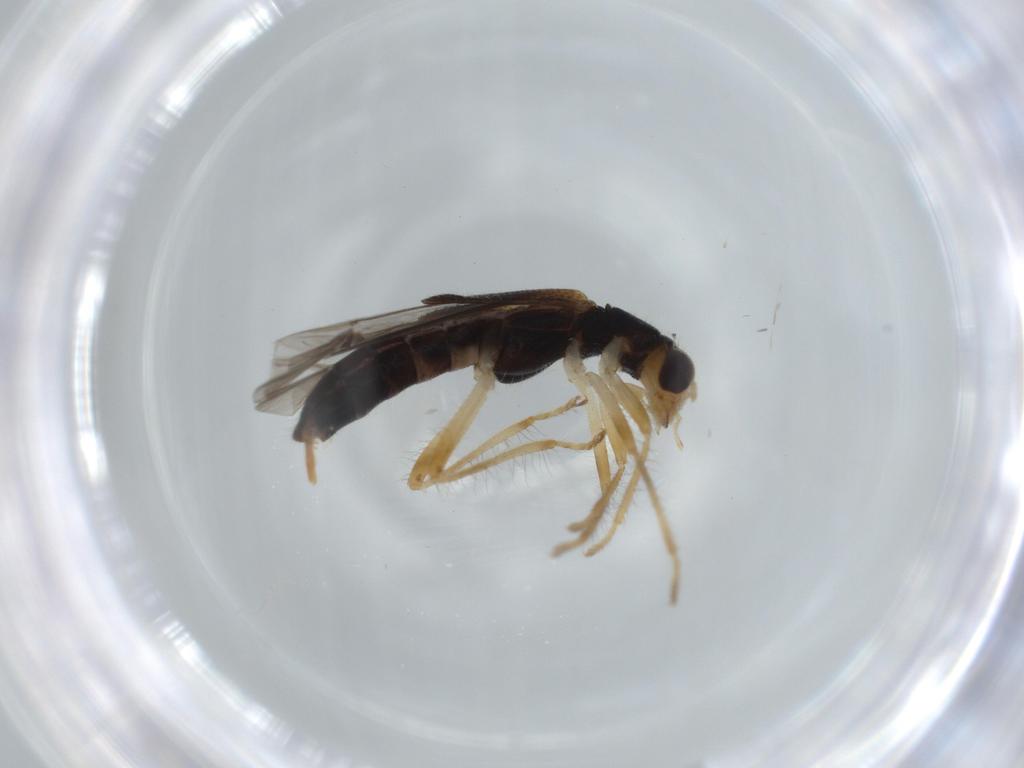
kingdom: Animalia
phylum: Arthropoda
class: Insecta
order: Coleoptera
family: Cleridae
